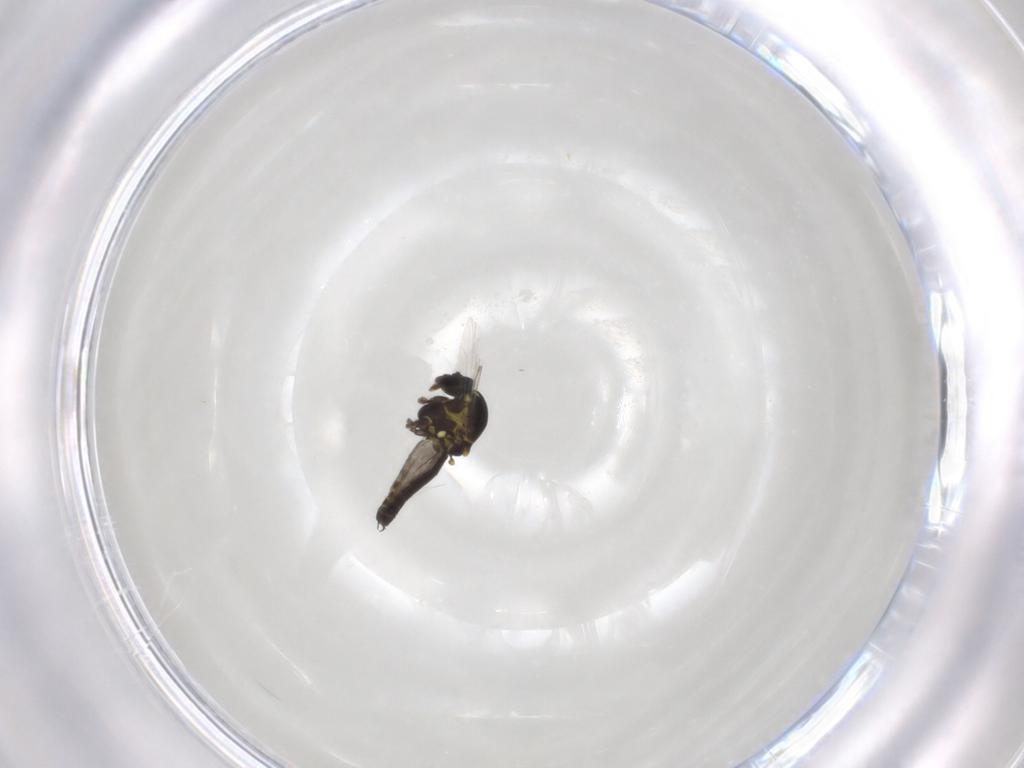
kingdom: Animalia
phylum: Arthropoda
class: Insecta
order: Diptera
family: Ceratopogonidae
